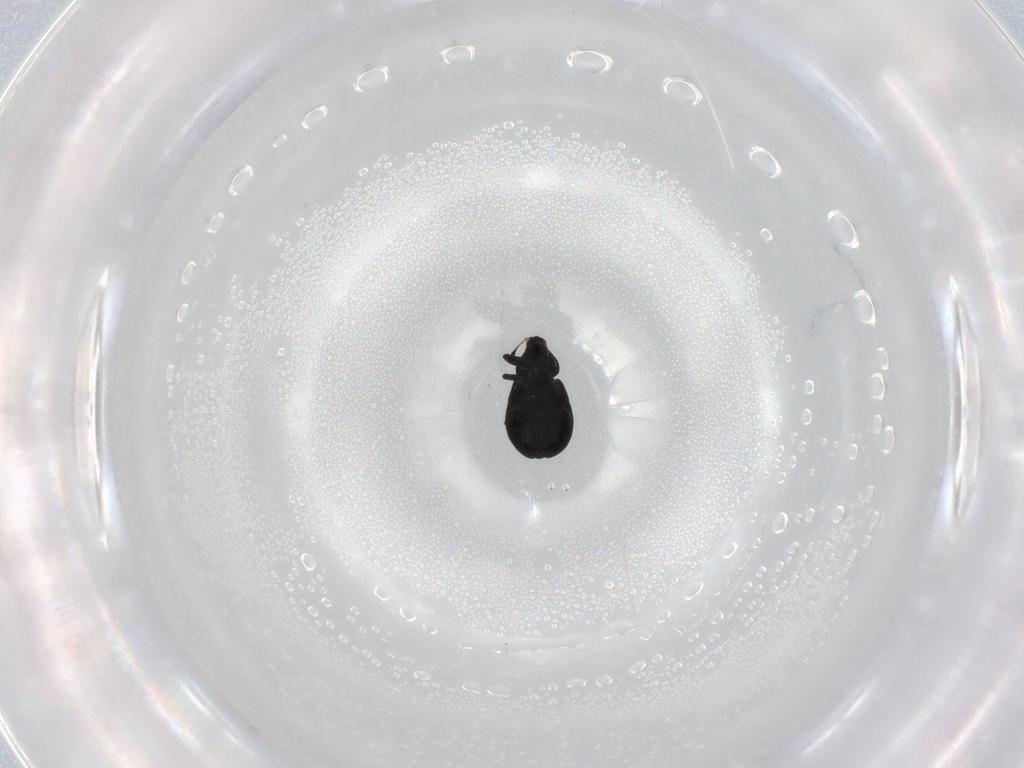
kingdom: Animalia
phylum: Arthropoda
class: Insecta
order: Coleoptera
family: Curculionidae
